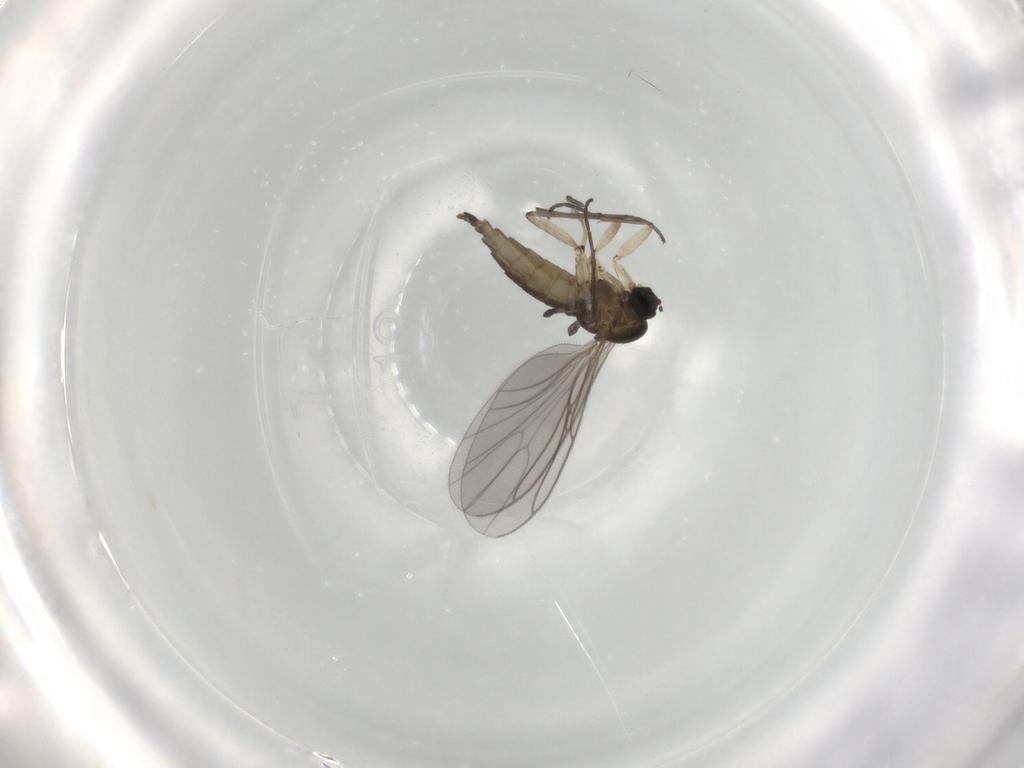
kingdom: Animalia
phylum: Arthropoda
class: Insecta
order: Diptera
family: Sciaridae
